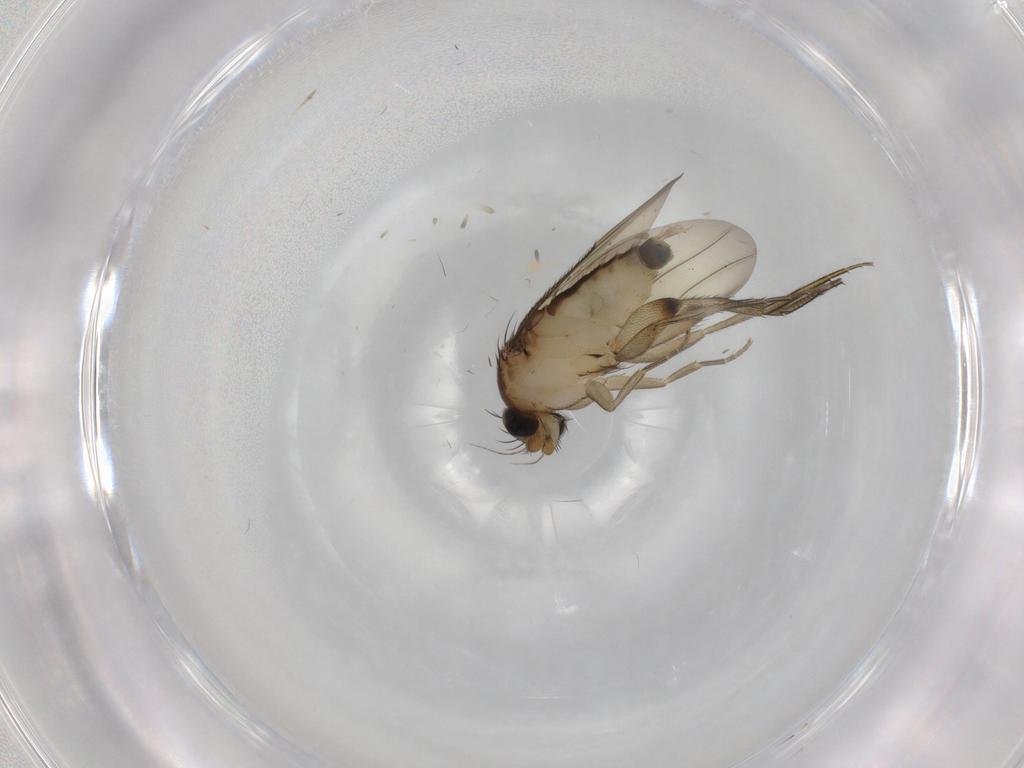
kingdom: Animalia
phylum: Arthropoda
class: Insecta
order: Diptera
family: Phoridae
